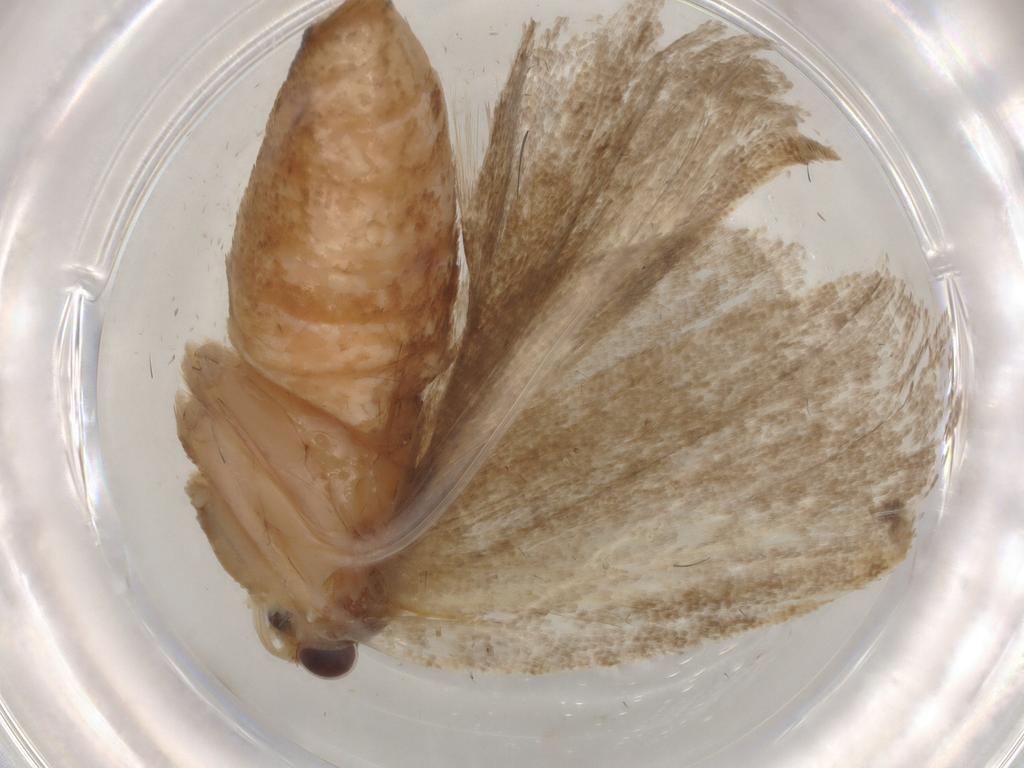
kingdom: Animalia
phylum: Arthropoda
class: Insecta
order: Lepidoptera
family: Tortricidae
